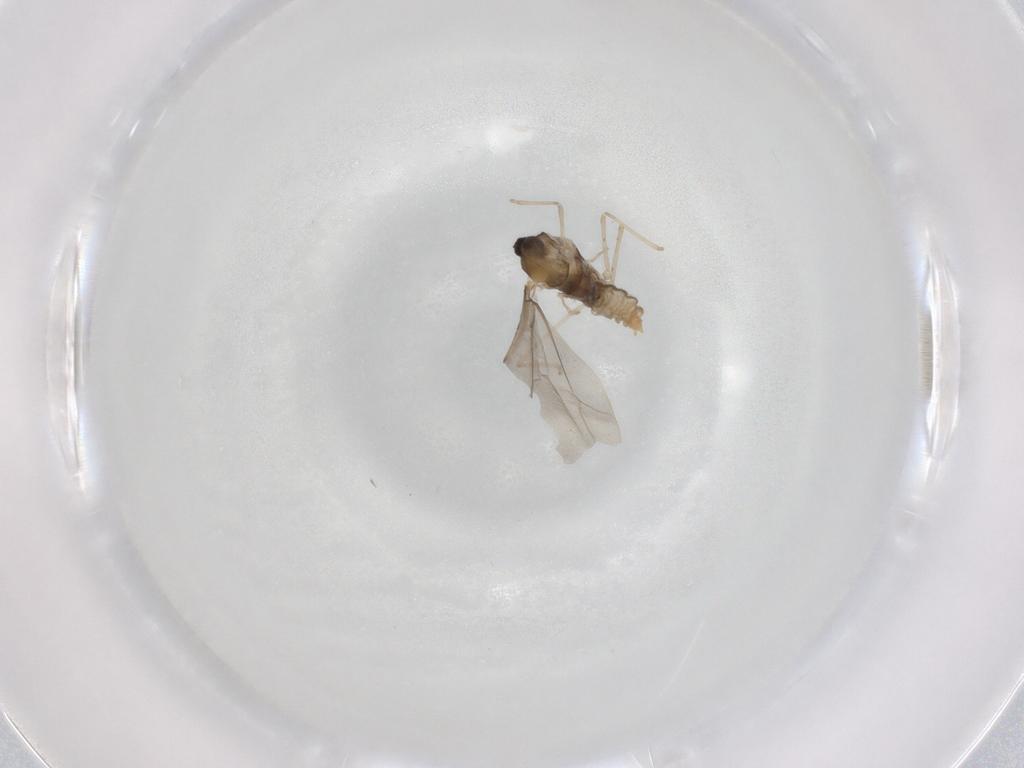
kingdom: Animalia
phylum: Arthropoda
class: Insecta
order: Diptera
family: Cecidomyiidae
